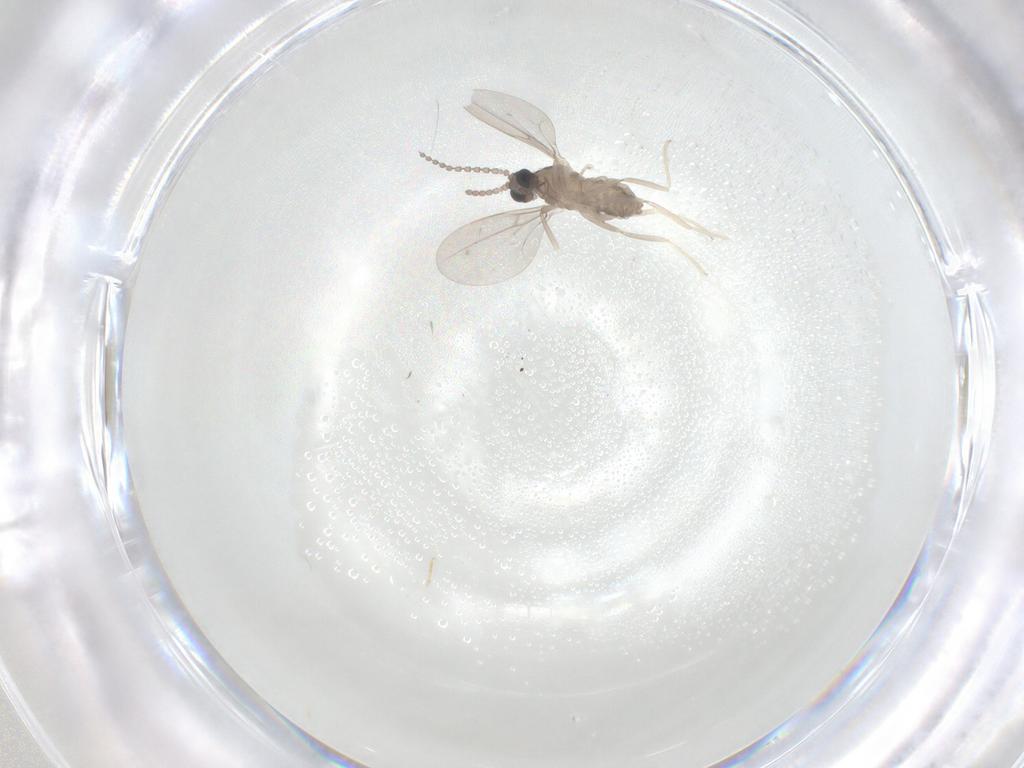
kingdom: Animalia
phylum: Arthropoda
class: Insecta
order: Diptera
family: Cecidomyiidae
